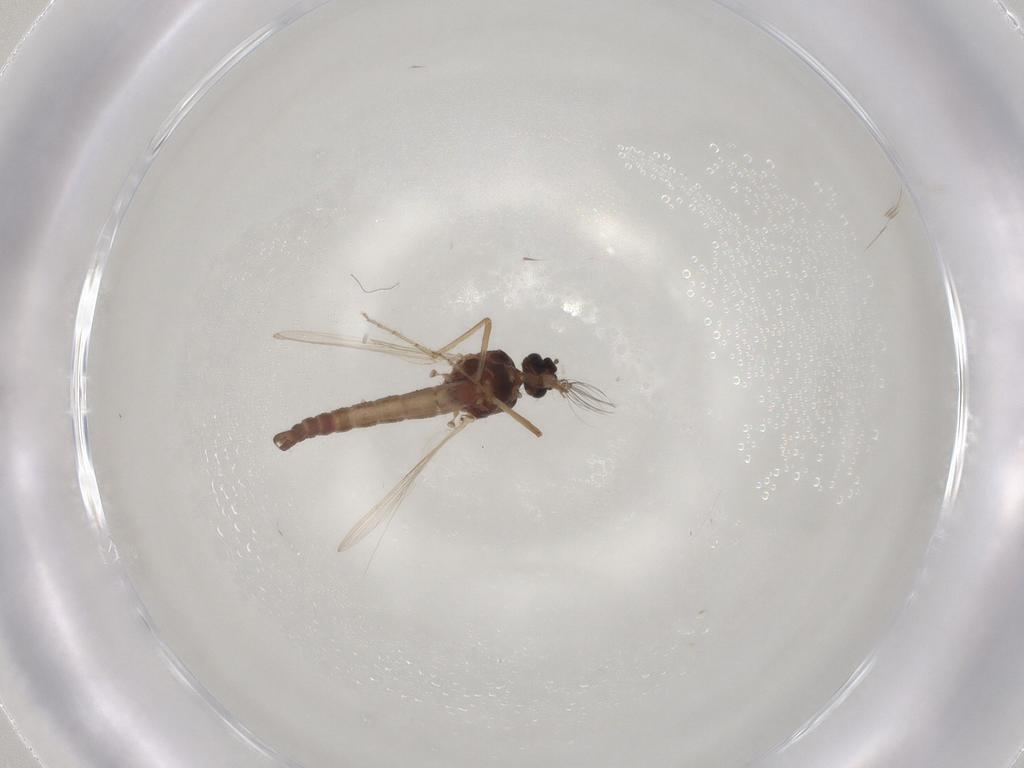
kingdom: Animalia
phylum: Arthropoda
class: Insecta
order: Diptera
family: Ceratopogonidae
